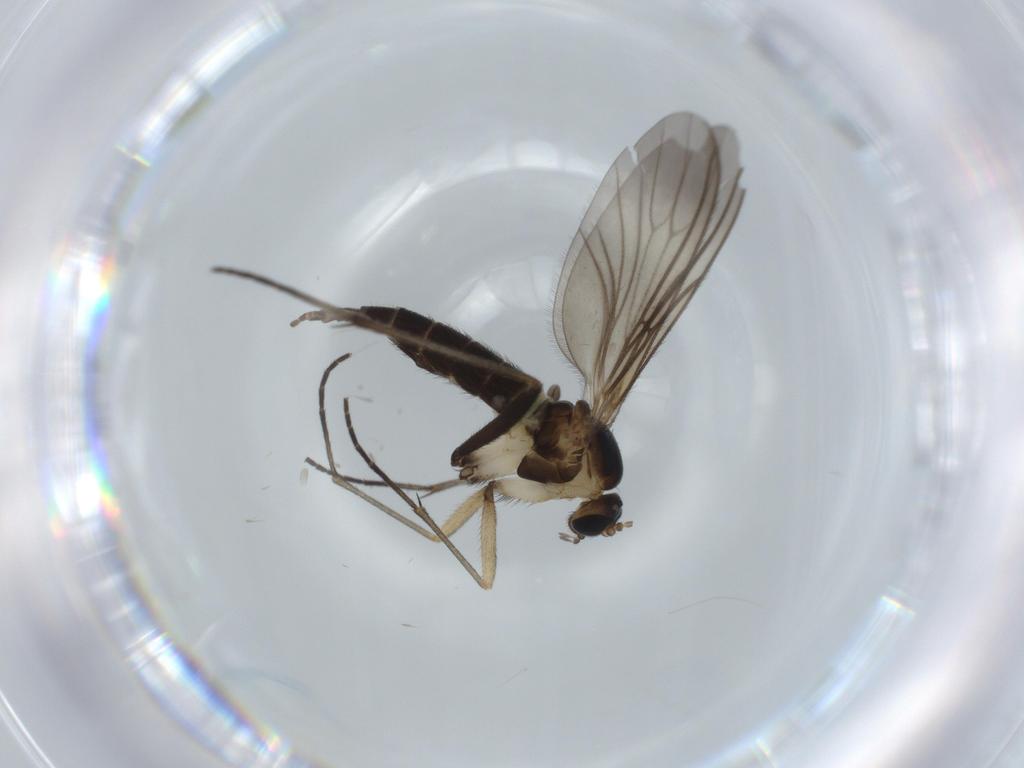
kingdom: Animalia
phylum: Arthropoda
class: Insecta
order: Diptera
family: Sciaridae
